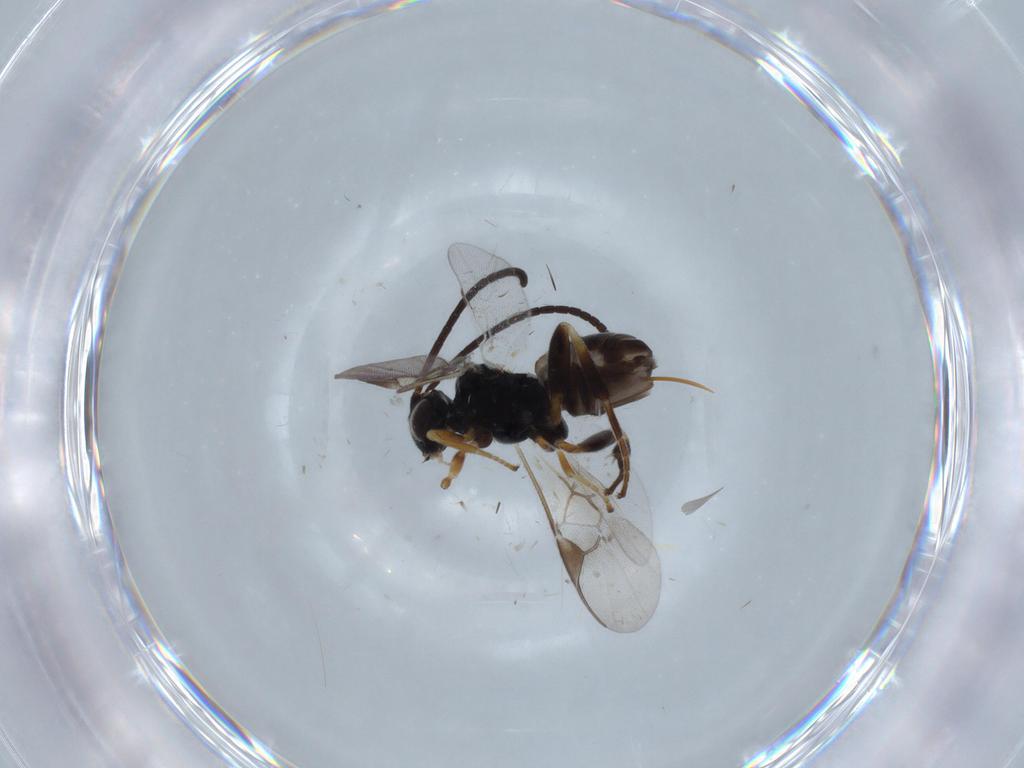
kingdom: Animalia
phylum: Arthropoda
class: Insecta
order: Hymenoptera
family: Braconidae
